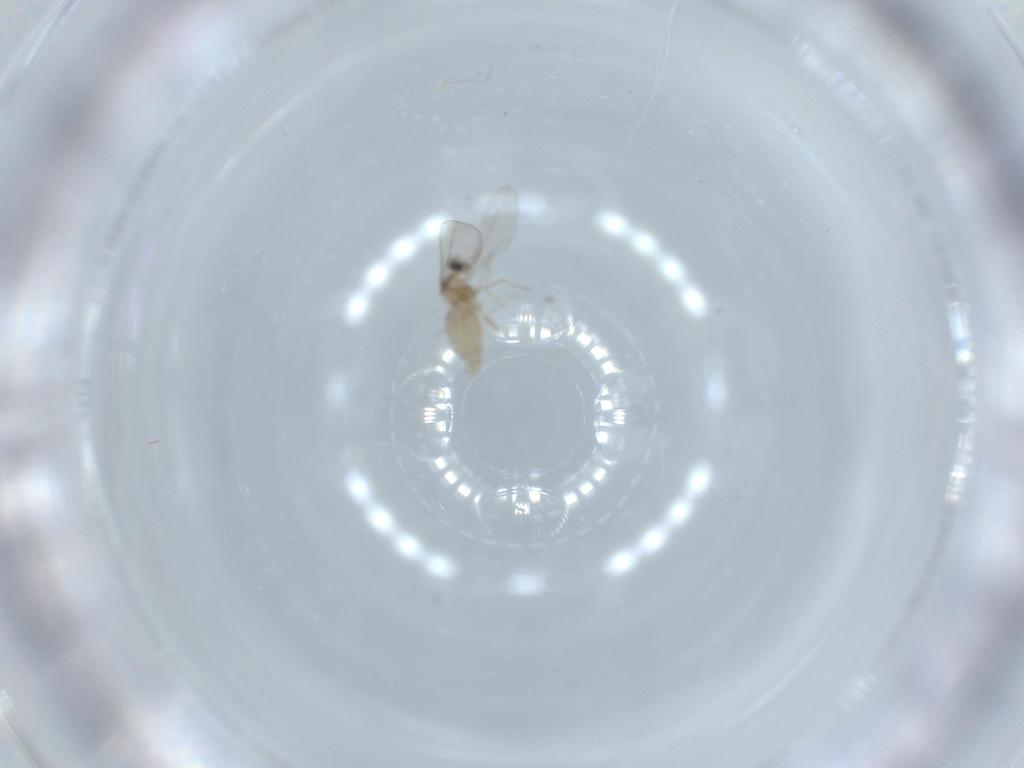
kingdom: Animalia
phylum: Arthropoda
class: Insecta
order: Diptera
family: Cecidomyiidae
